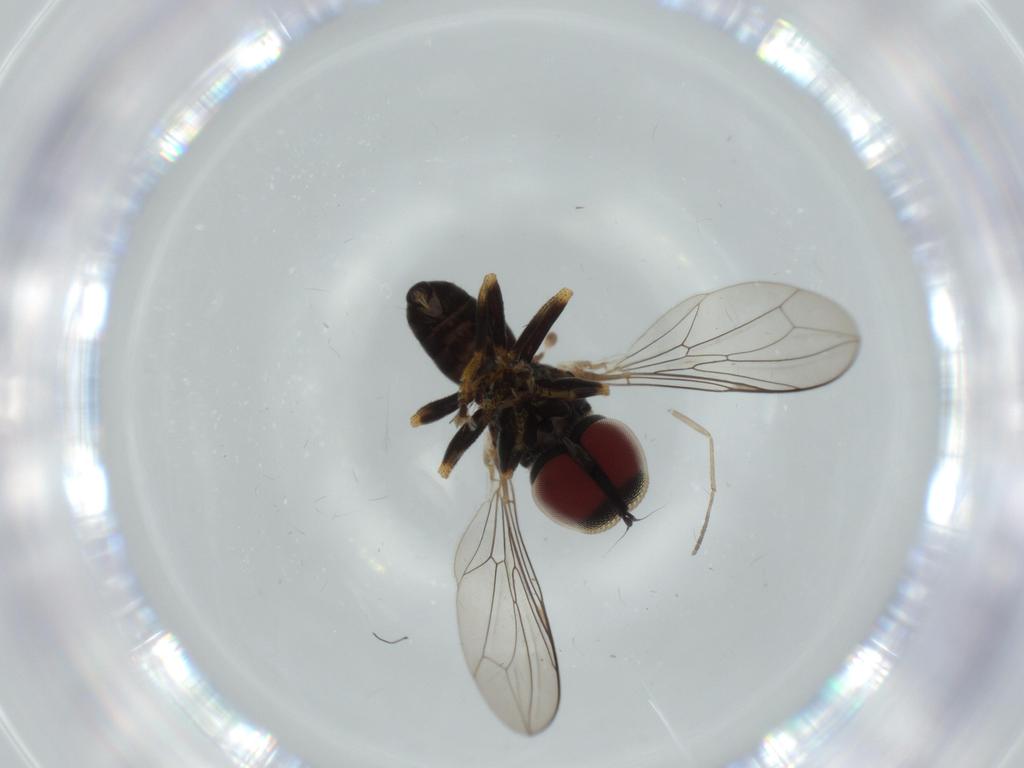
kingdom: Animalia
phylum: Arthropoda
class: Insecta
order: Diptera
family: Pipunculidae
